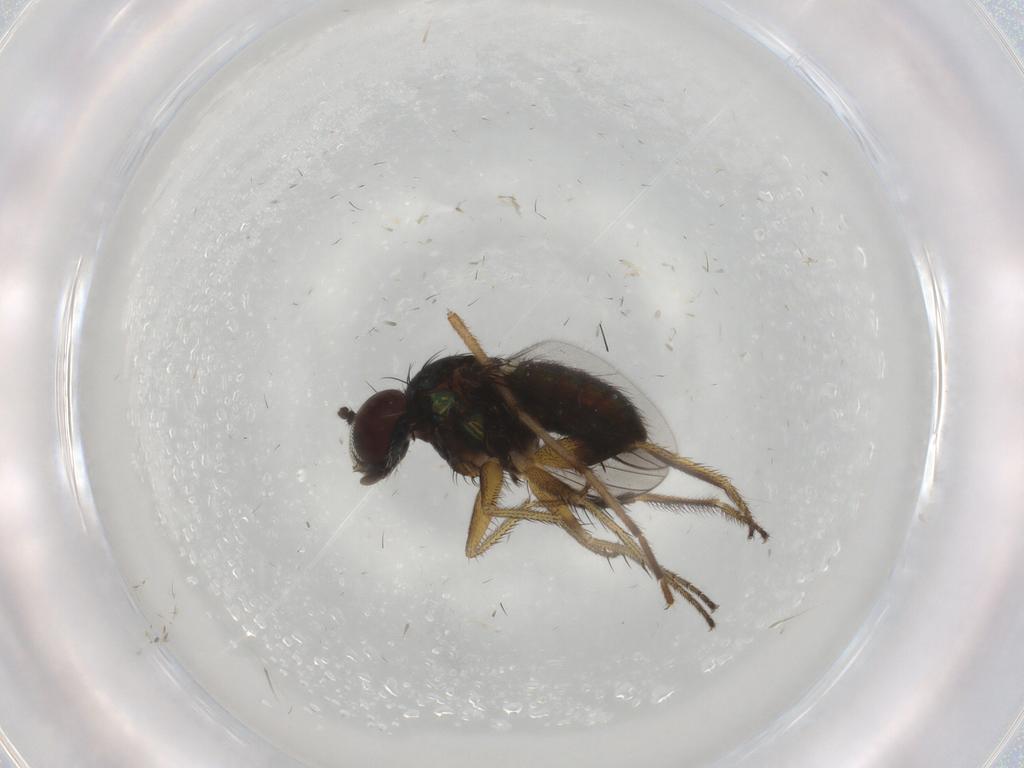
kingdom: Animalia
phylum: Arthropoda
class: Insecta
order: Diptera
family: Dolichopodidae
